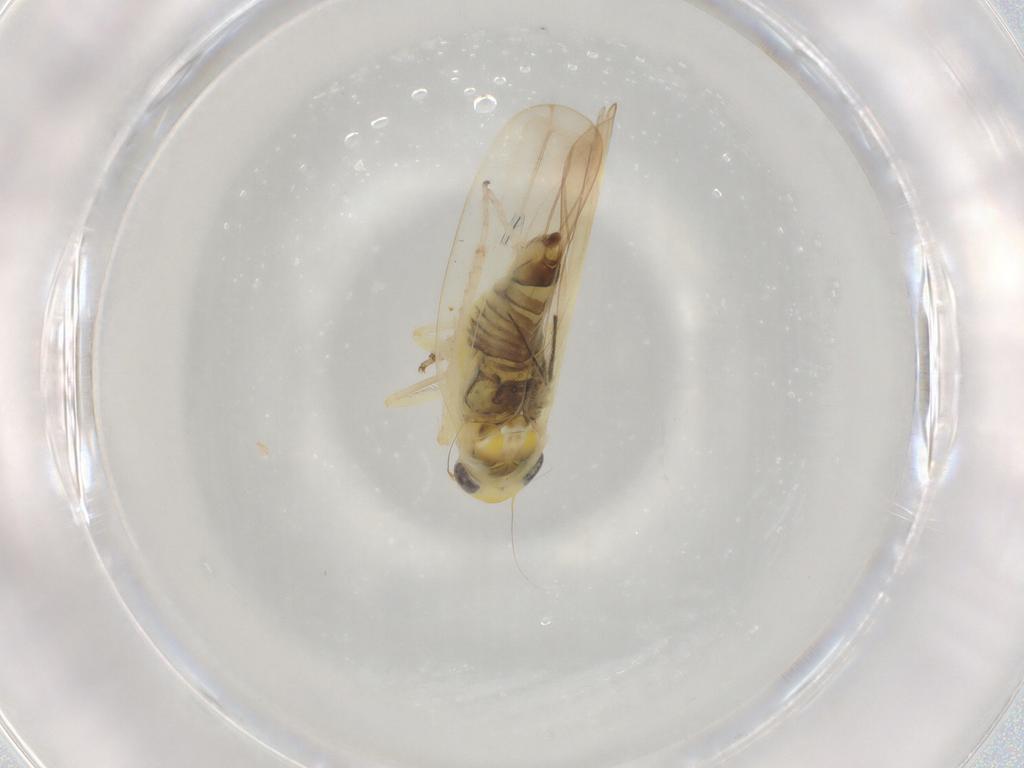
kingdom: Animalia
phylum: Arthropoda
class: Insecta
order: Hemiptera
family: Cicadellidae
